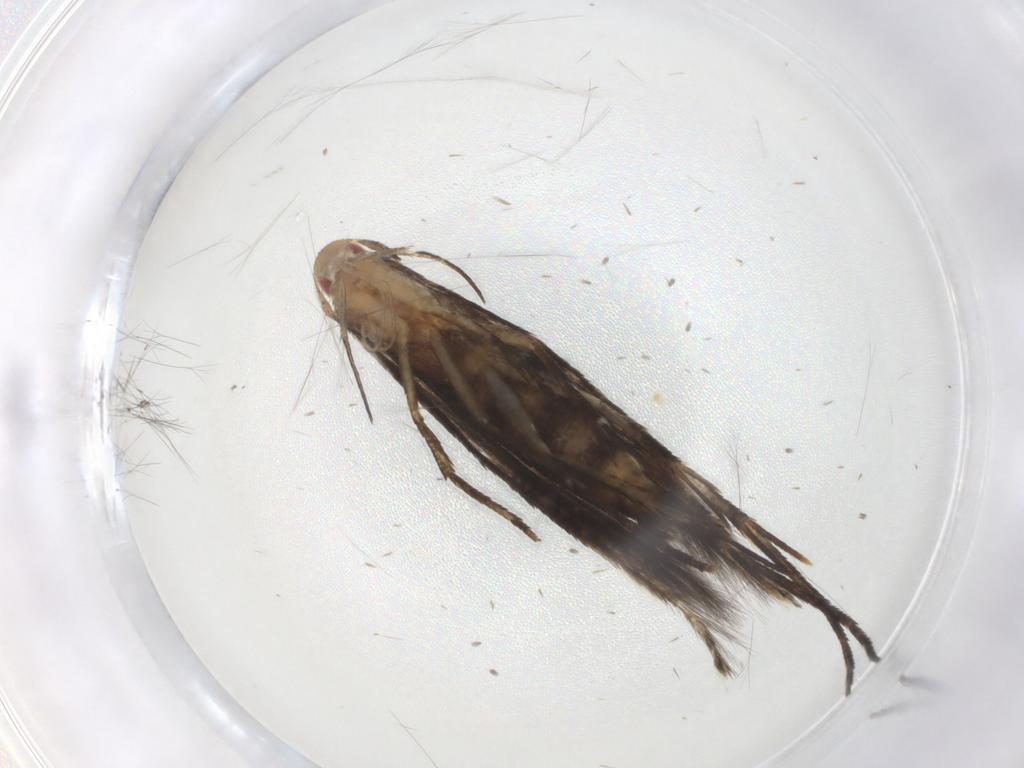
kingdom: Animalia
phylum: Arthropoda
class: Insecta
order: Lepidoptera
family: Cosmopterigidae
